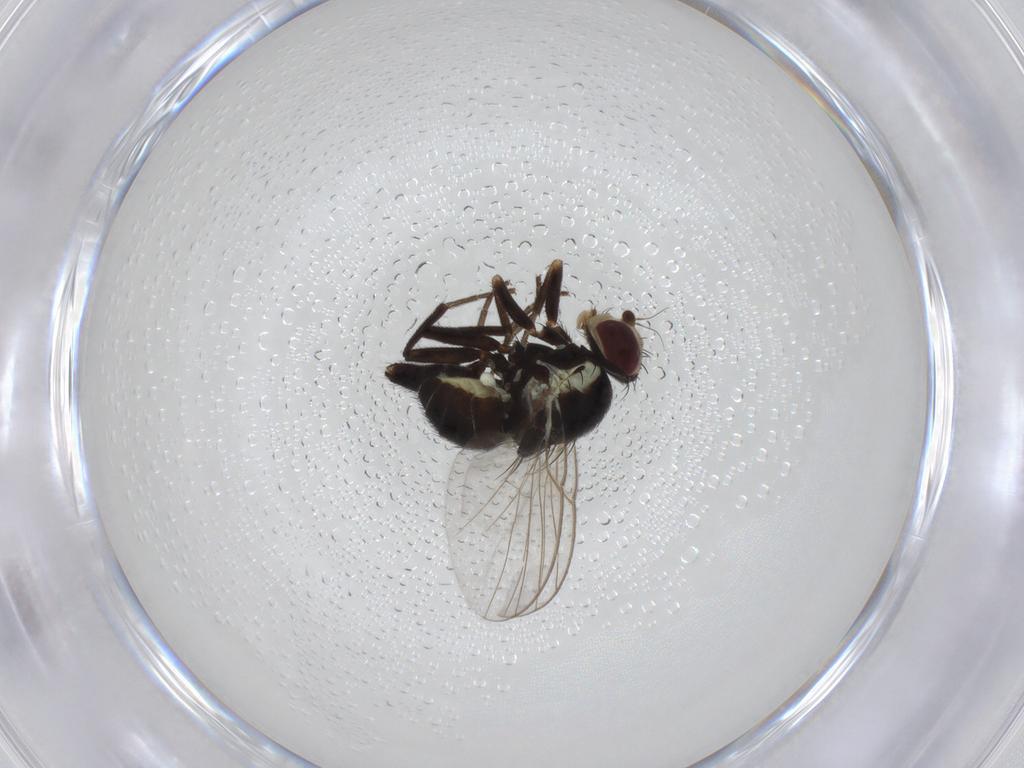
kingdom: Animalia
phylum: Arthropoda
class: Insecta
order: Diptera
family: Agromyzidae
